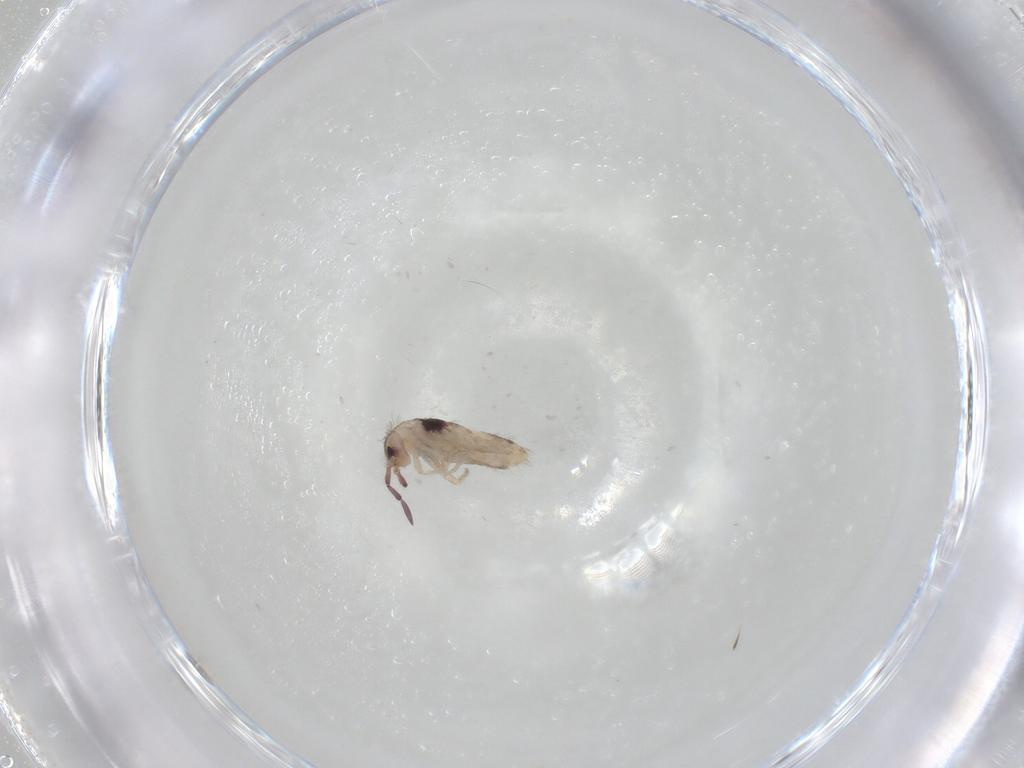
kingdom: Animalia
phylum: Arthropoda
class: Collembola
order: Entomobryomorpha
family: Entomobryidae
